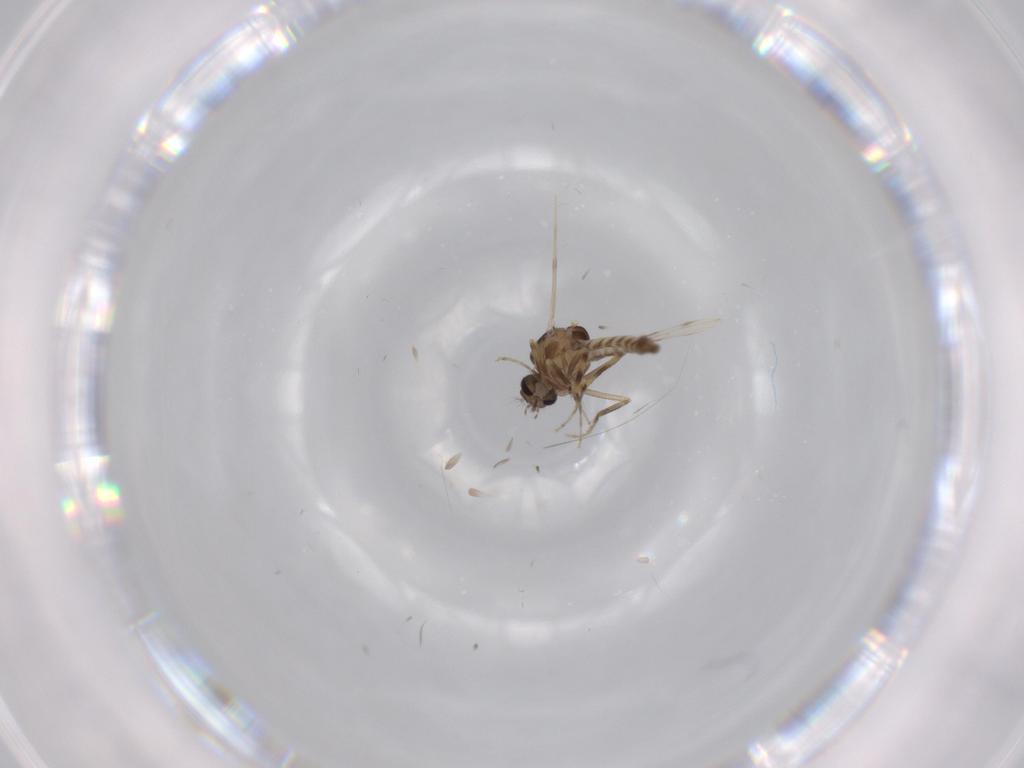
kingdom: Animalia
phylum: Arthropoda
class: Insecta
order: Diptera
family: Ceratopogonidae
